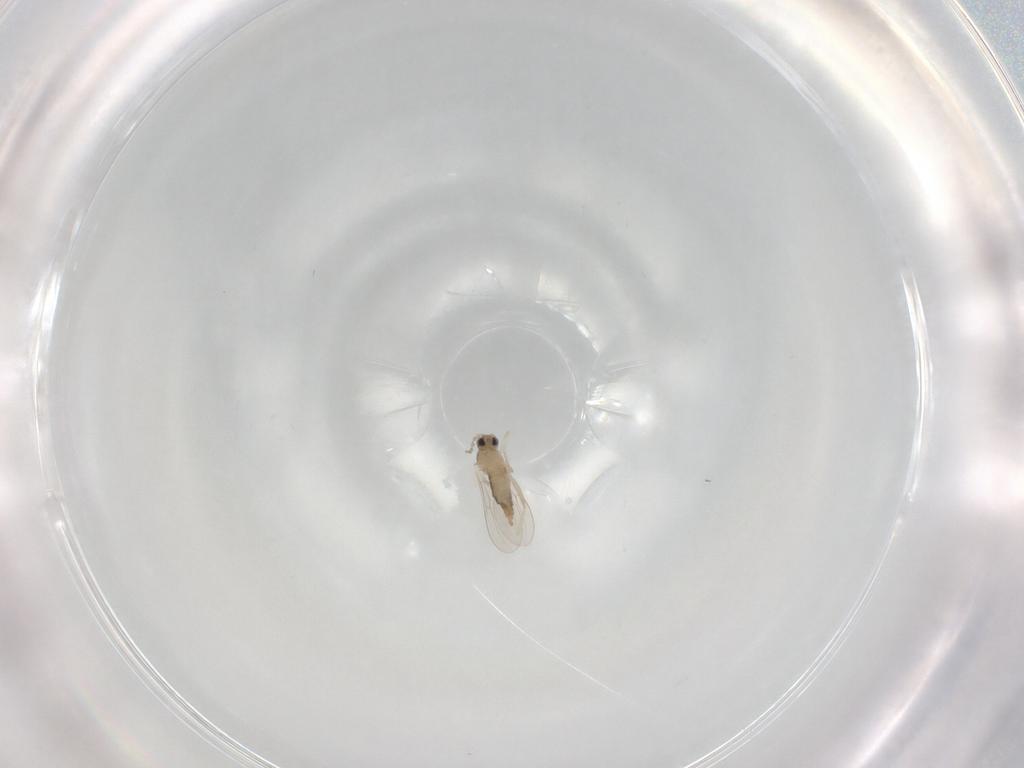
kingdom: Animalia
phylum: Arthropoda
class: Insecta
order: Diptera
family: Cecidomyiidae
